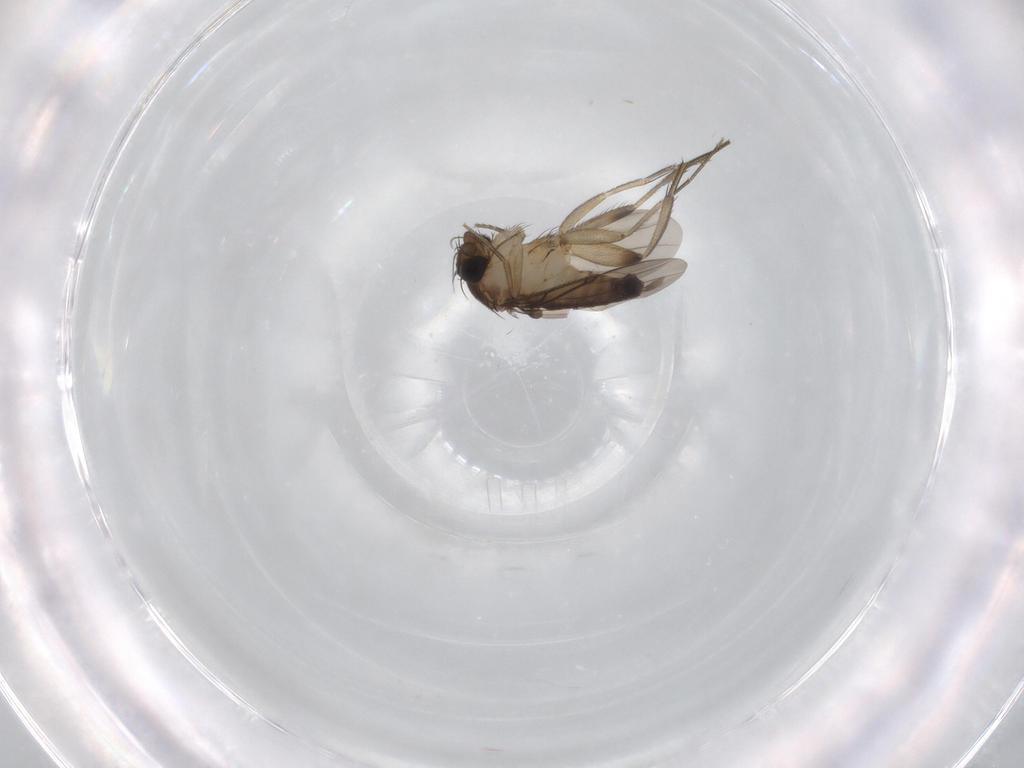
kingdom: Animalia
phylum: Arthropoda
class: Insecta
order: Diptera
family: Phoridae
